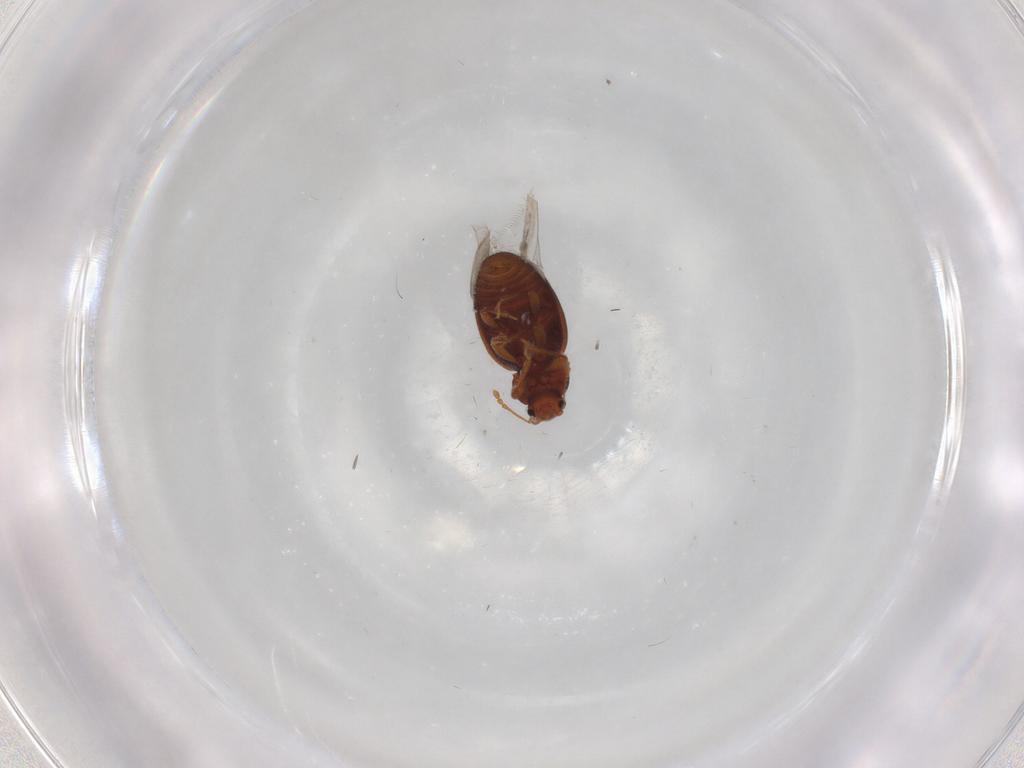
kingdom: Animalia
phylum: Arthropoda
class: Insecta
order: Coleoptera
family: Latridiidae
